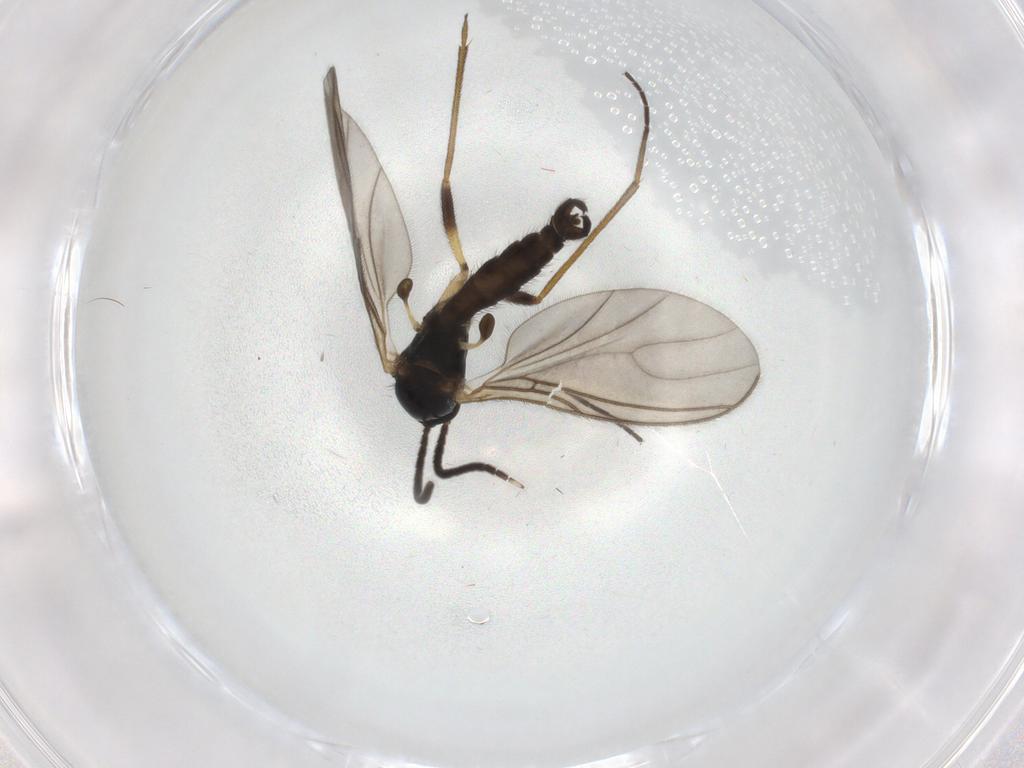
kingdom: Animalia
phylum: Arthropoda
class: Insecta
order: Diptera
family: Sciaridae
